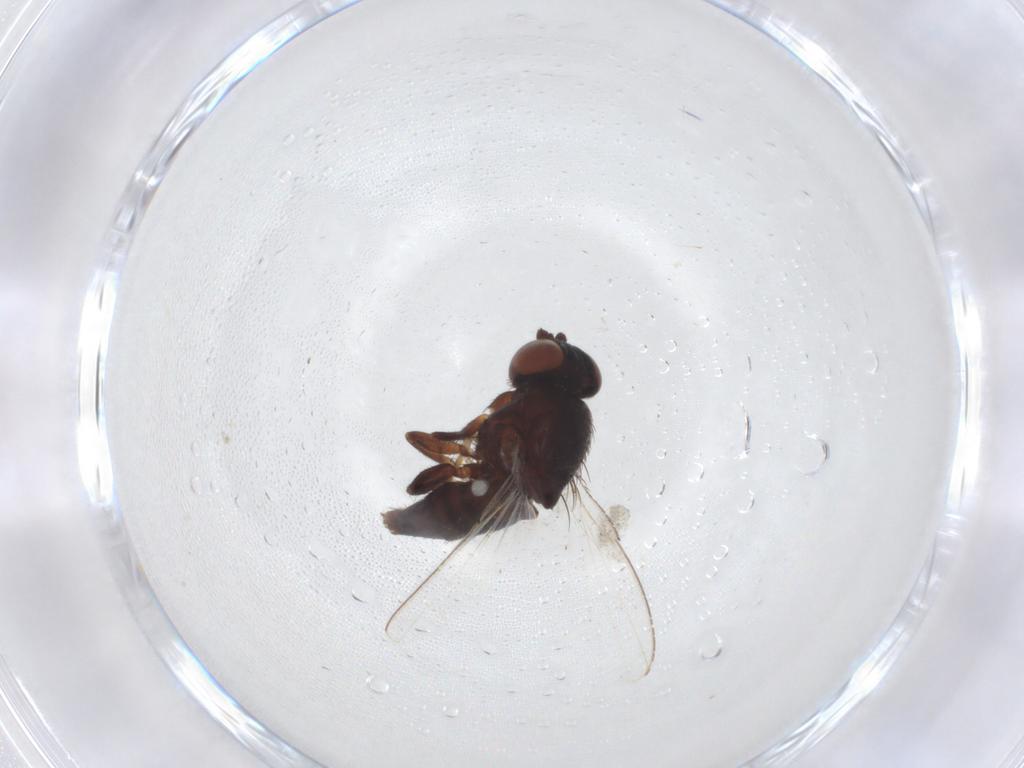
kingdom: Animalia
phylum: Arthropoda
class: Insecta
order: Diptera
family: Milichiidae
